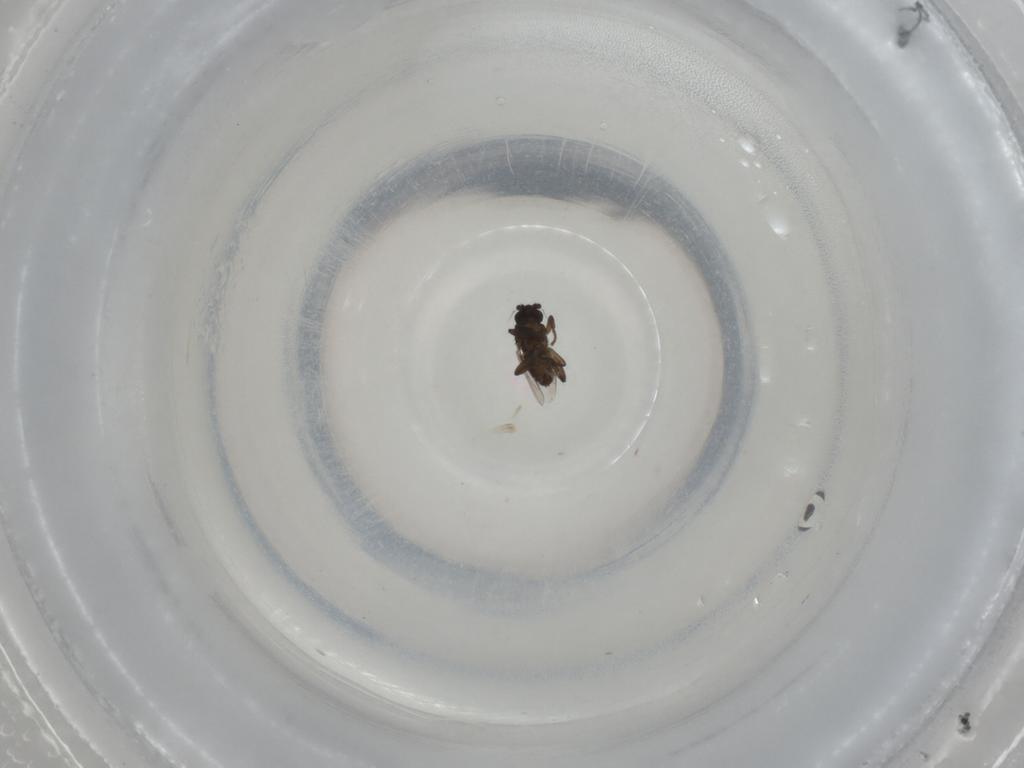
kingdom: Animalia
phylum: Arthropoda
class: Insecta
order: Diptera
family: Sphaeroceridae
